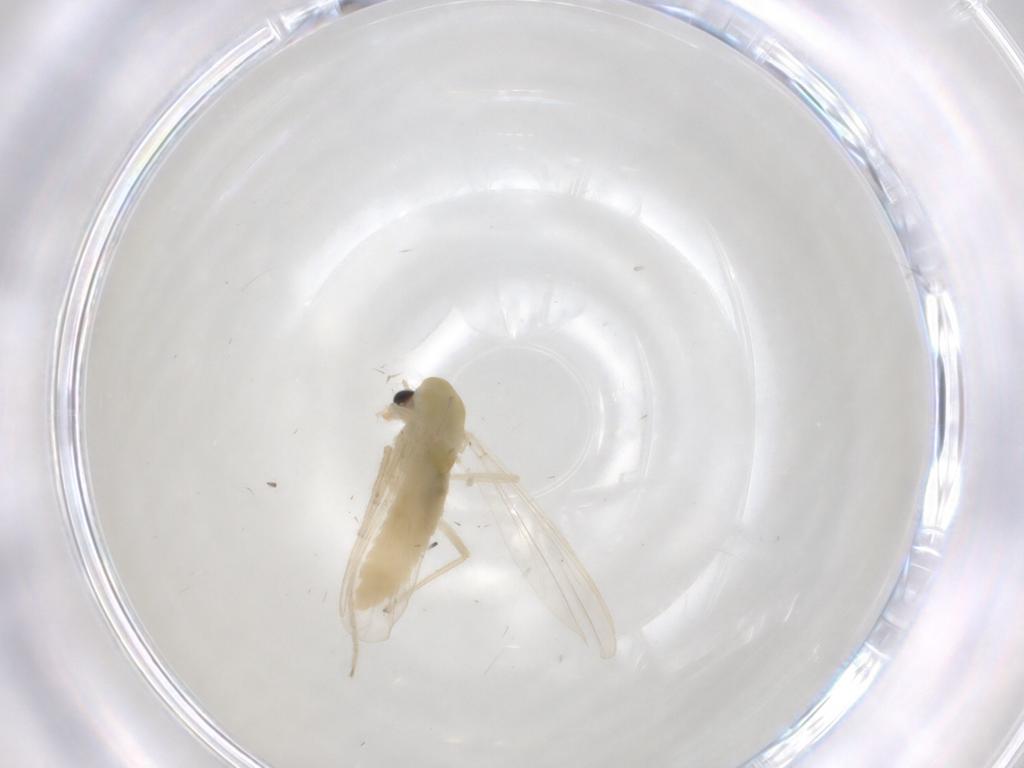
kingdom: Animalia
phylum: Arthropoda
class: Insecta
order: Diptera
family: Chironomidae
